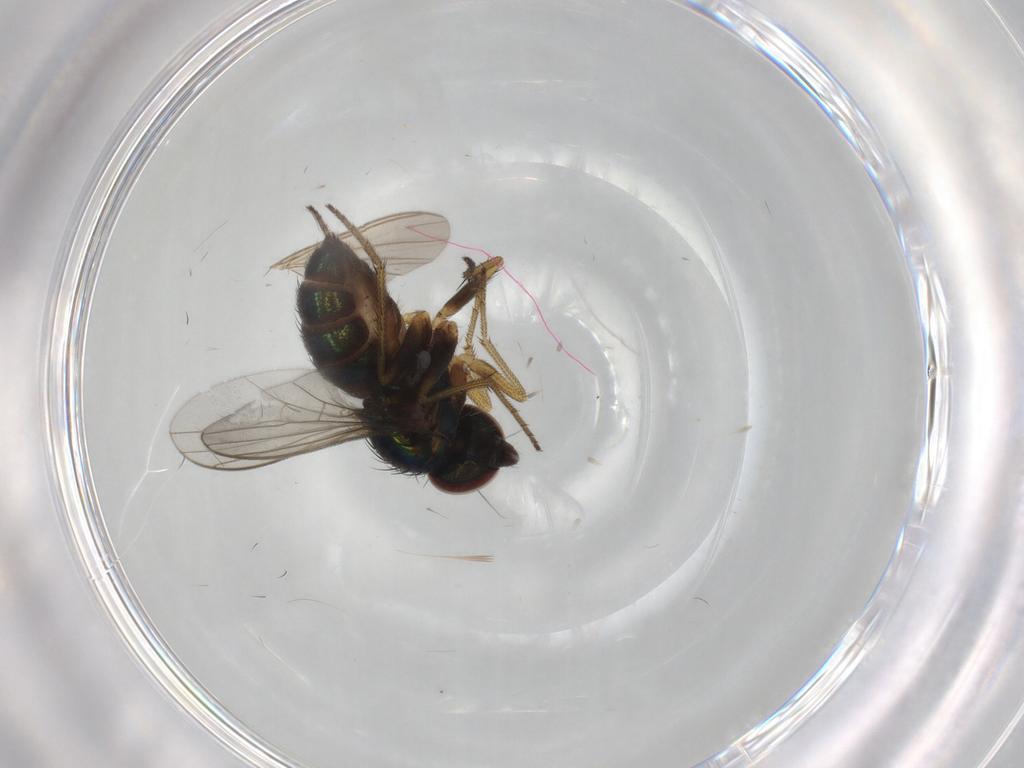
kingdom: Animalia
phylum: Arthropoda
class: Insecta
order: Diptera
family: Mycetophilidae
